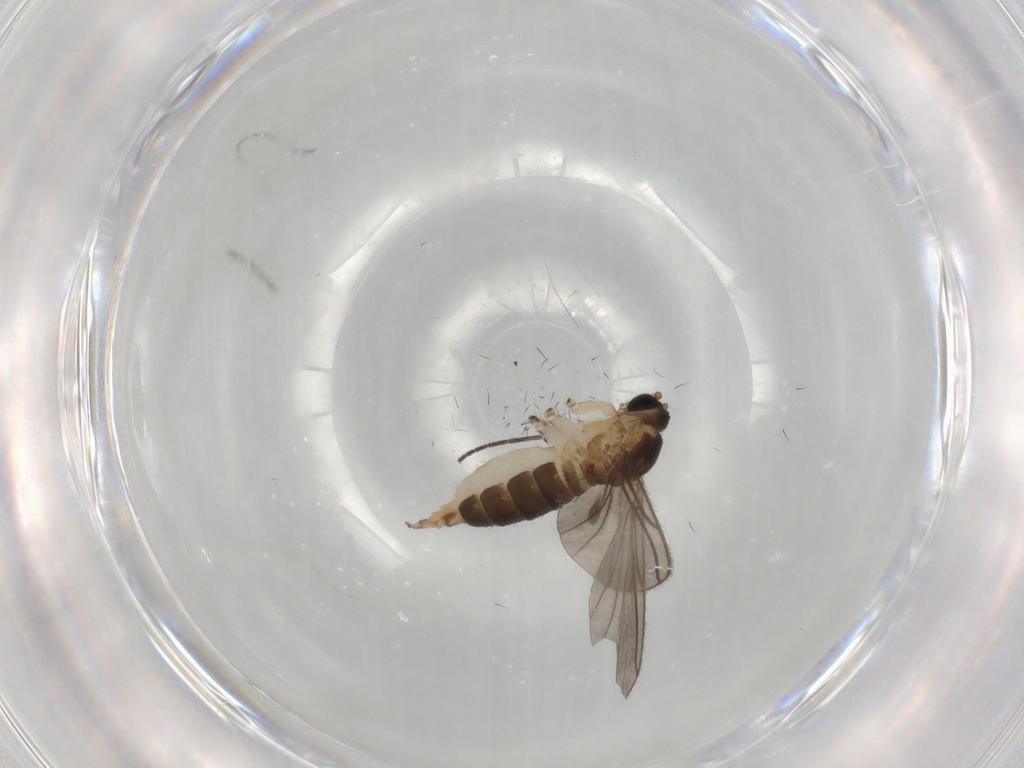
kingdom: Animalia
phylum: Arthropoda
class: Insecta
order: Diptera
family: Sciaridae
